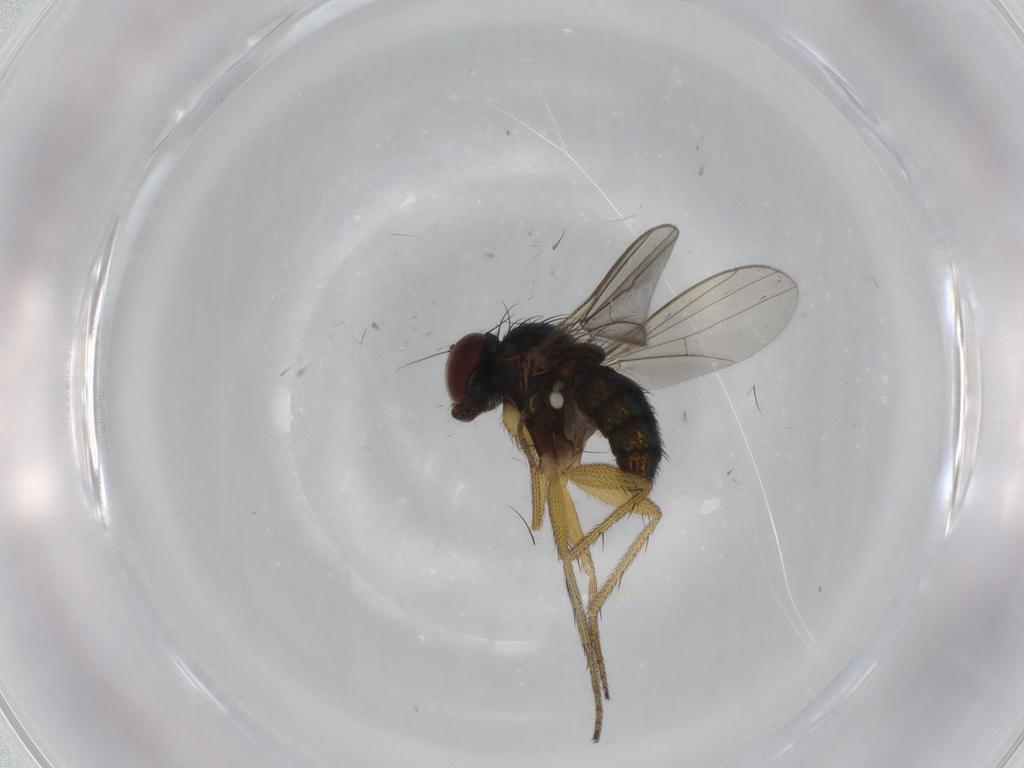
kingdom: Animalia
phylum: Arthropoda
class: Insecta
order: Diptera
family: Dolichopodidae
